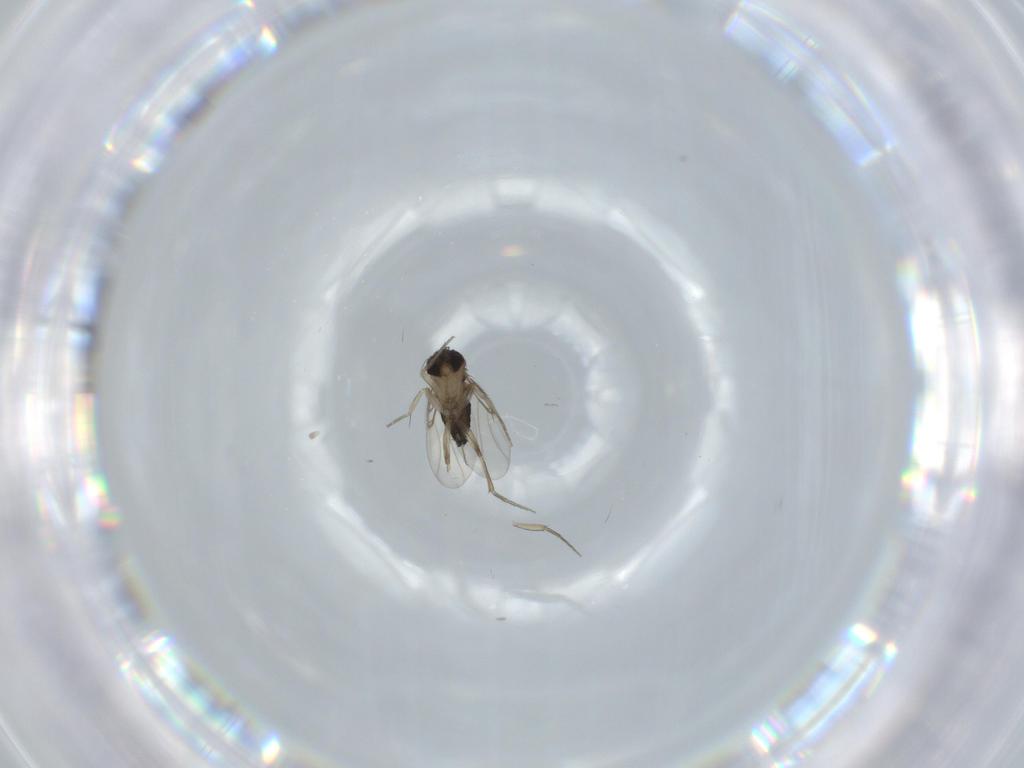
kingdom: Animalia
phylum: Arthropoda
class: Insecta
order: Diptera
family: Phoridae
